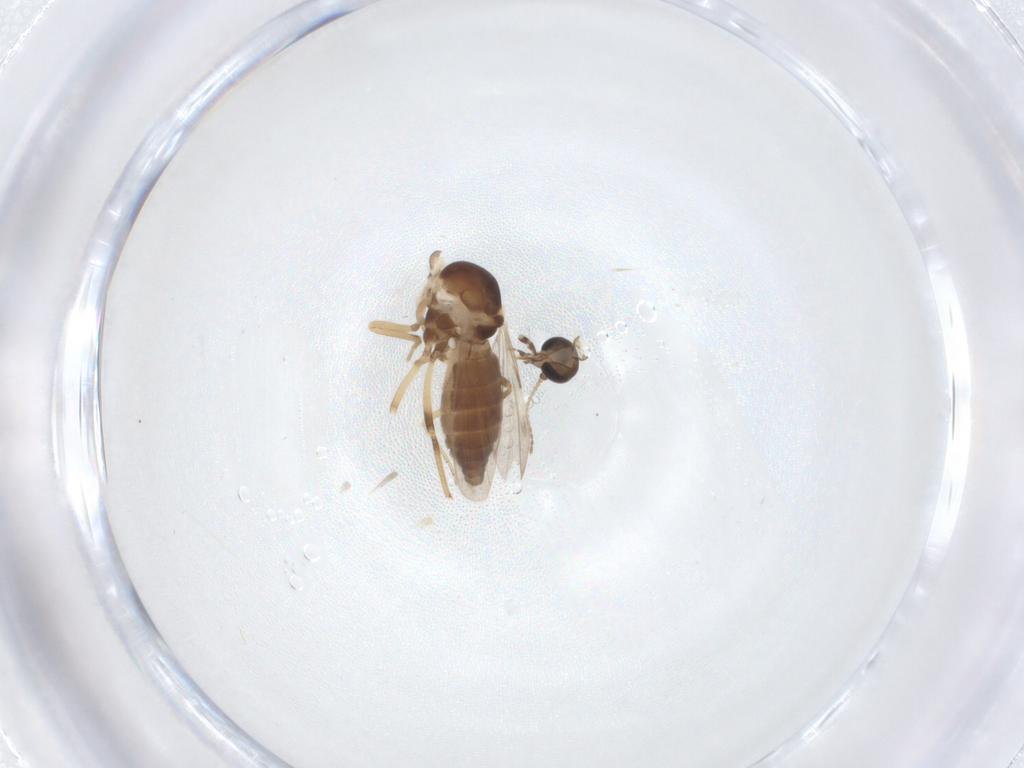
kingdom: Animalia
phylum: Arthropoda
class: Insecta
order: Diptera
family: Ceratopogonidae
